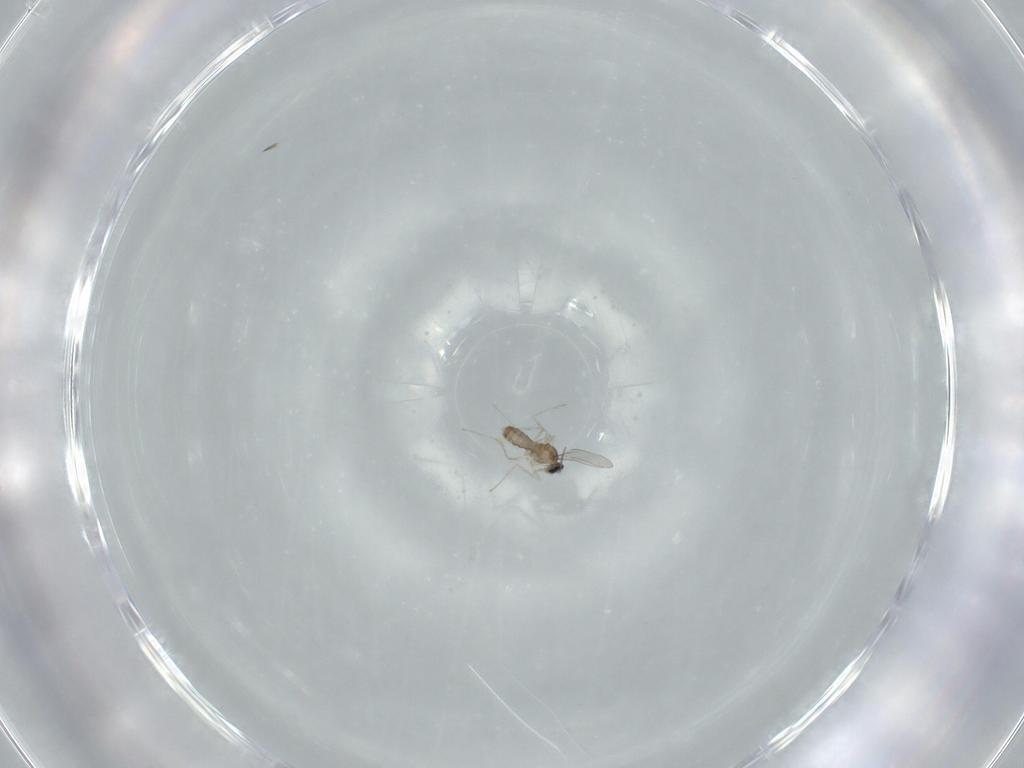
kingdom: Animalia
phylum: Arthropoda
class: Insecta
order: Diptera
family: Cecidomyiidae
